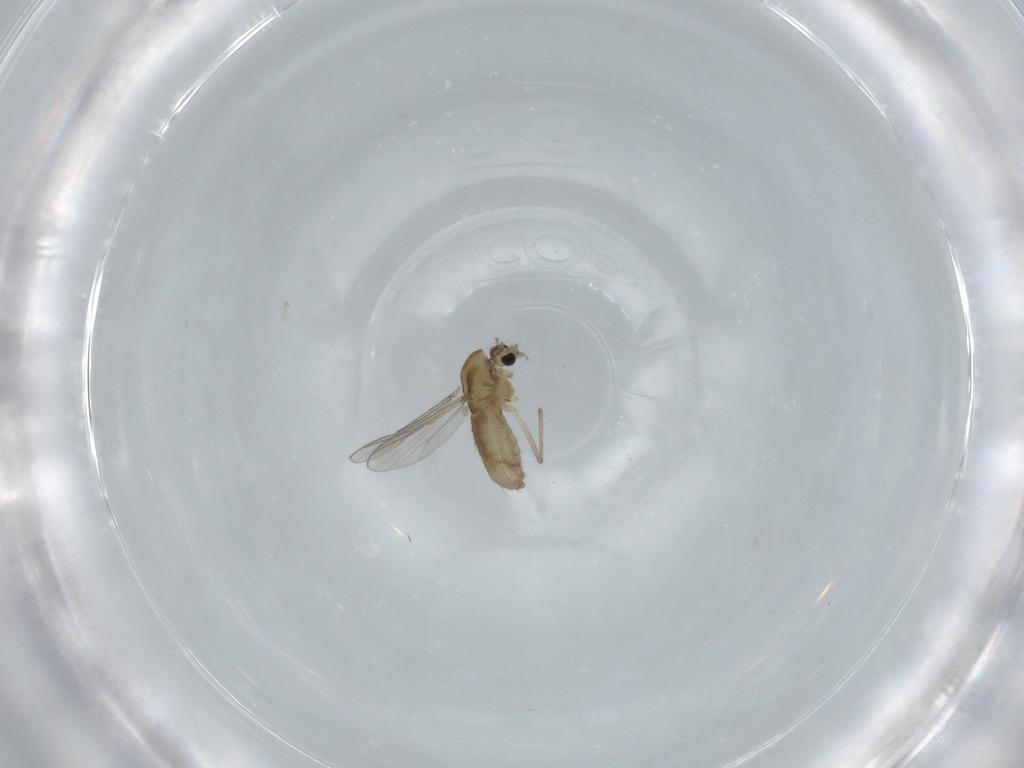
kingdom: Animalia
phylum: Arthropoda
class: Insecta
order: Diptera
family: Chironomidae
